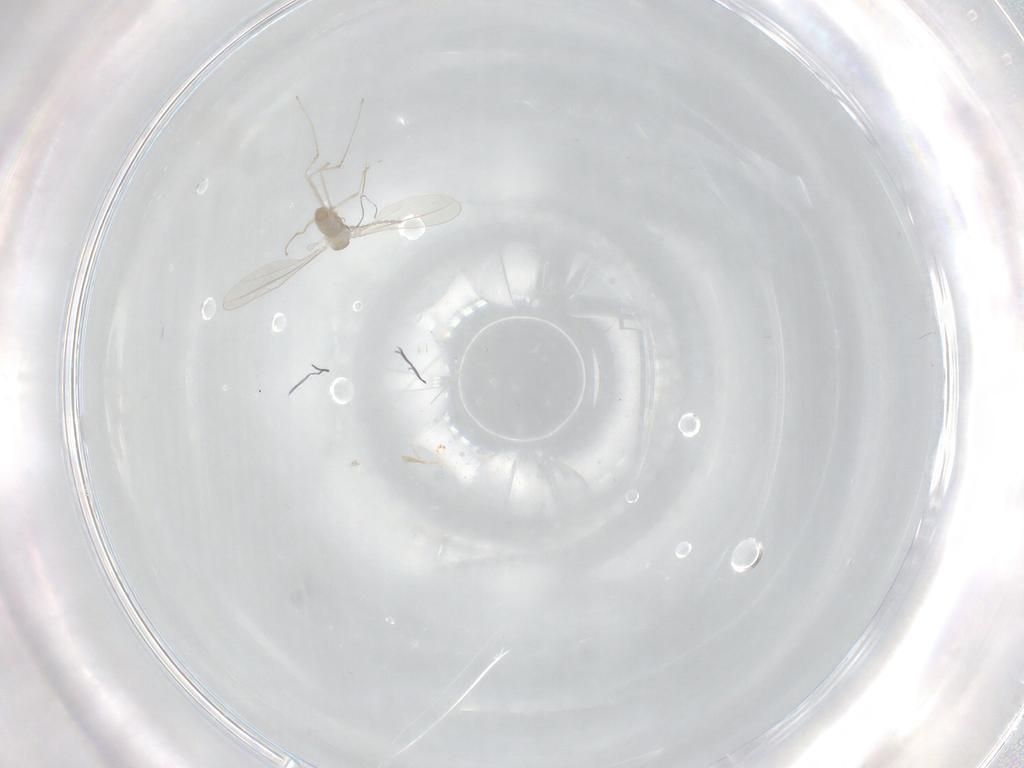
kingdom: Animalia
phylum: Arthropoda
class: Insecta
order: Diptera
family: Cecidomyiidae
